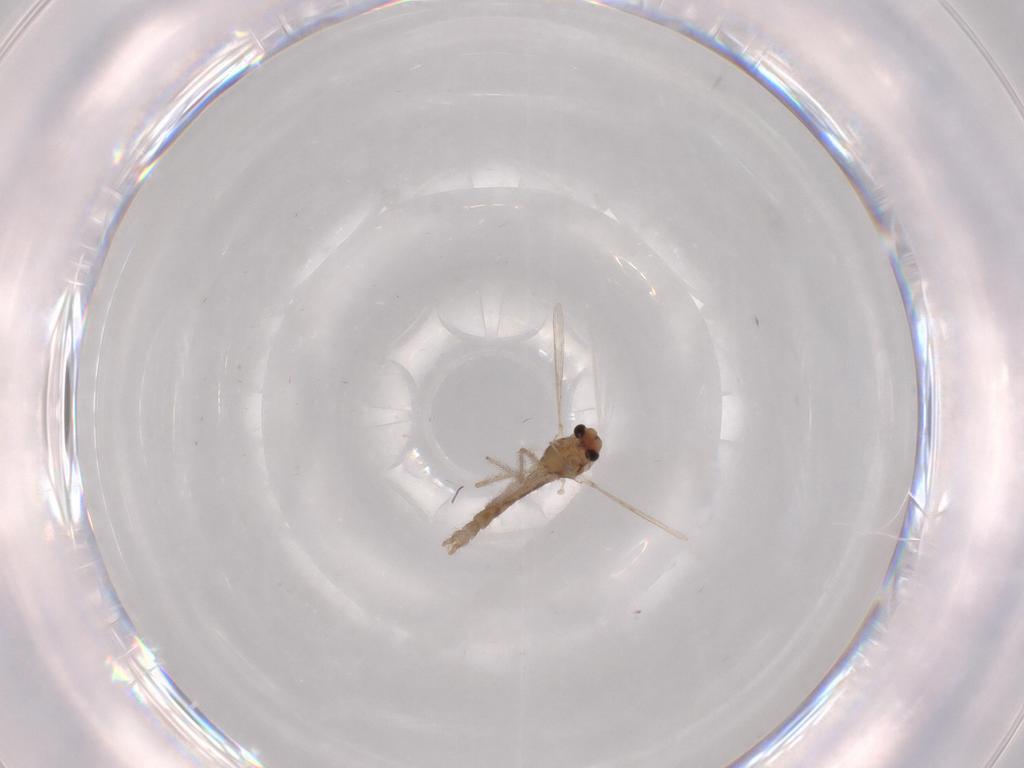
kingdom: Animalia
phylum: Arthropoda
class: Insecta
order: Diptera
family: Chironomidae
